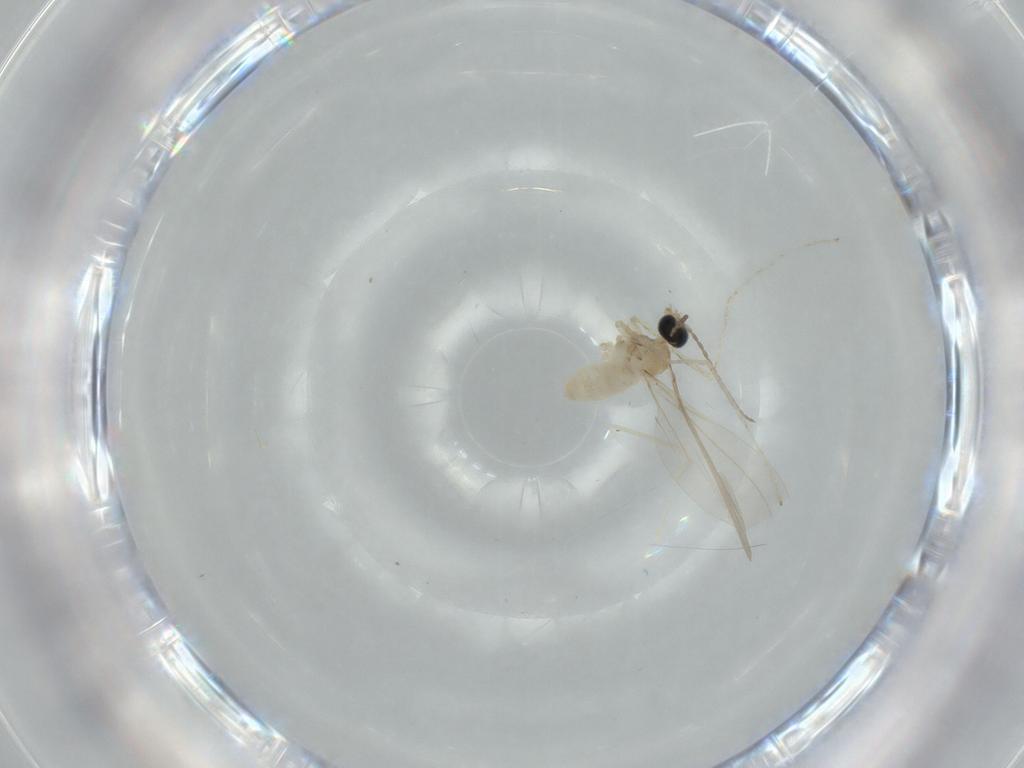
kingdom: Animalia
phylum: Arthropoda
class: Insecta
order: Diptera
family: Cecidomyiidae
